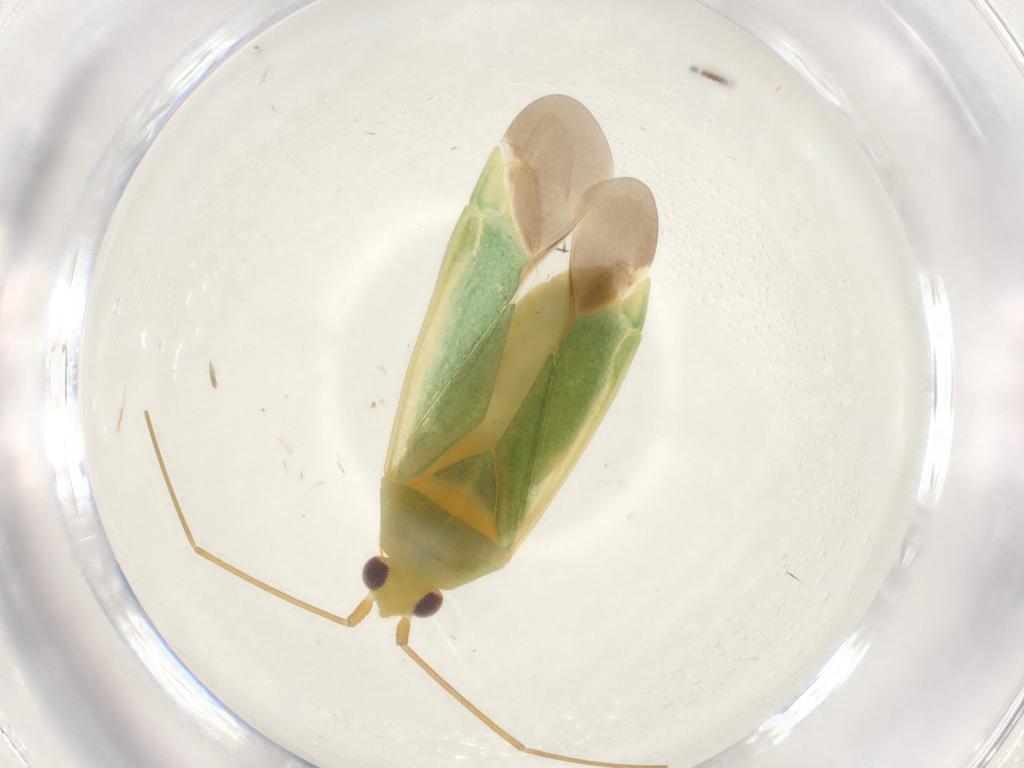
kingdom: Animalia
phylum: Arthropoda
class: Insecta
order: Hemiptera
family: Miridae
